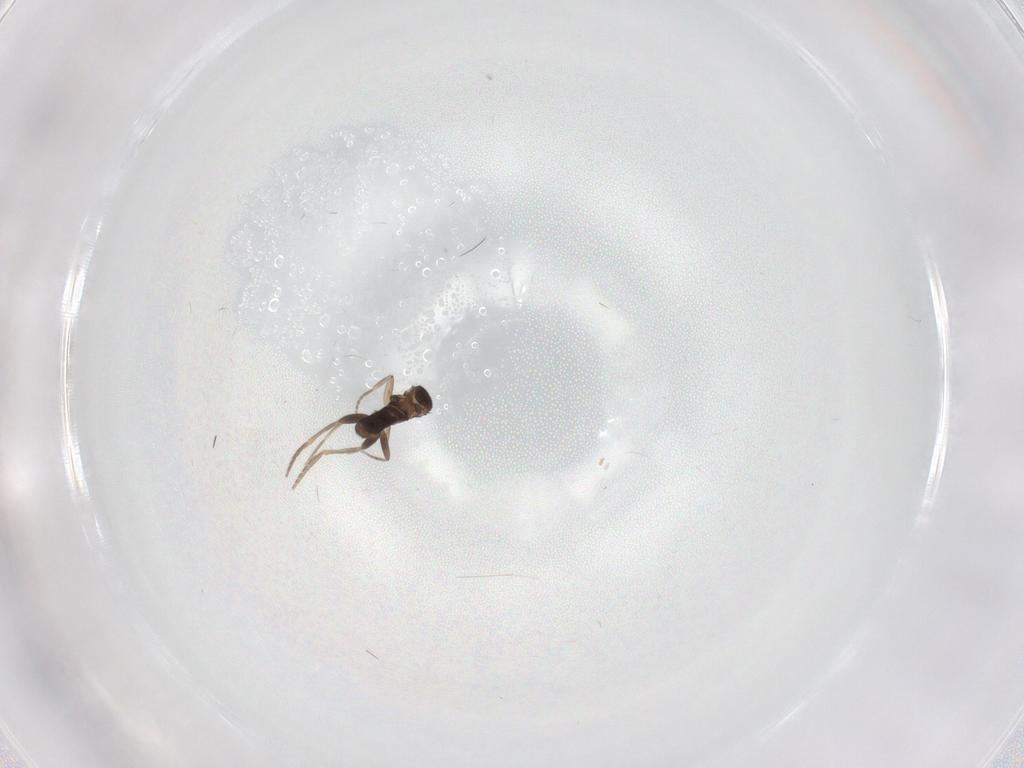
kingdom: Animalia
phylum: Arthropoda
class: Insecta
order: Diptera
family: Phoridae
